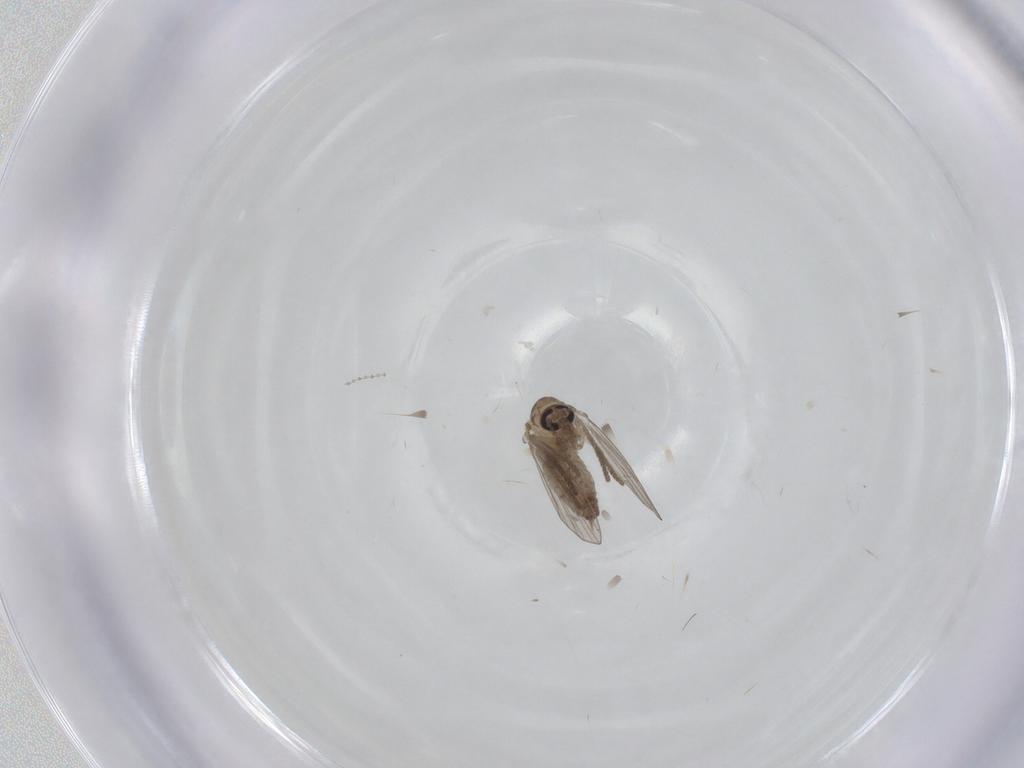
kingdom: Animalia
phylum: Arthropoda
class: Insecta
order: Diptera
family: Psychodidae
